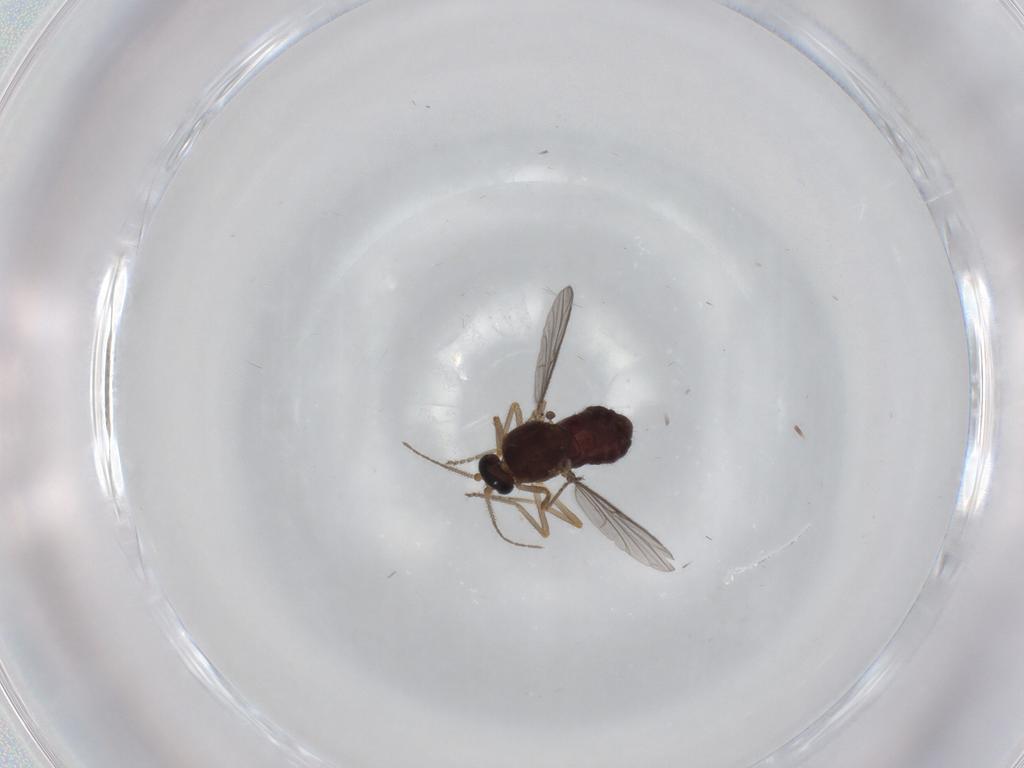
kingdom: Animalia
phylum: Arthropoda
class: Insecta
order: Diptera
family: Ceratopogonidae
